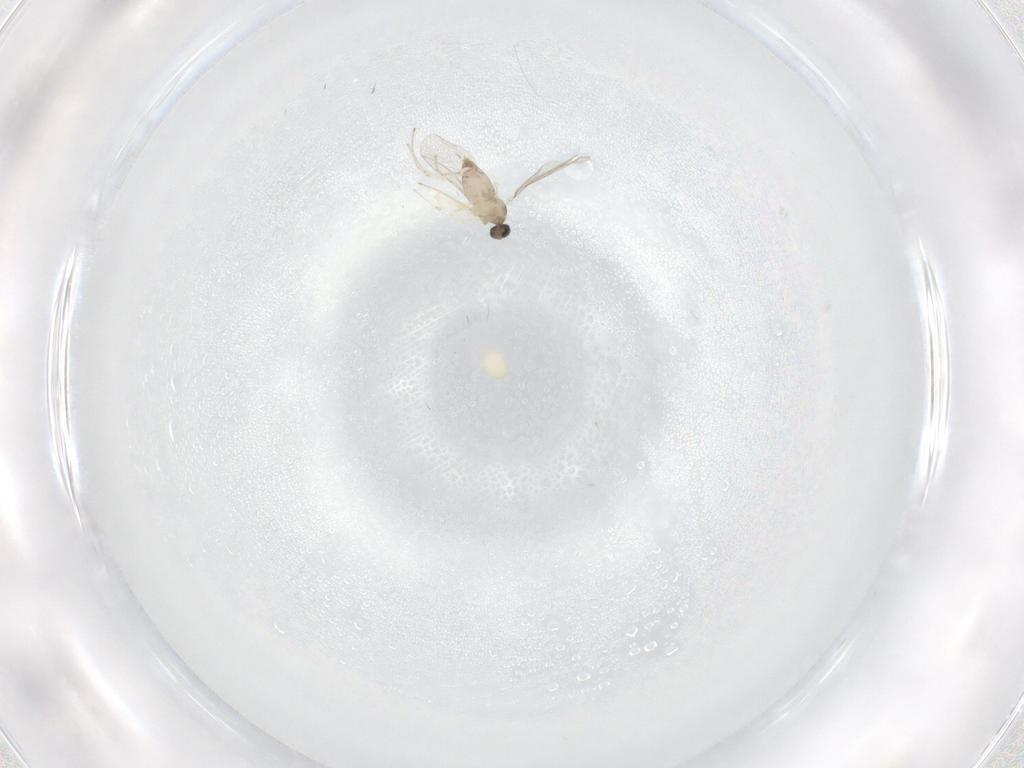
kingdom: Animalia
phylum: Arthropoda
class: Insecta
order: Diptera
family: Cecidomyiidae
